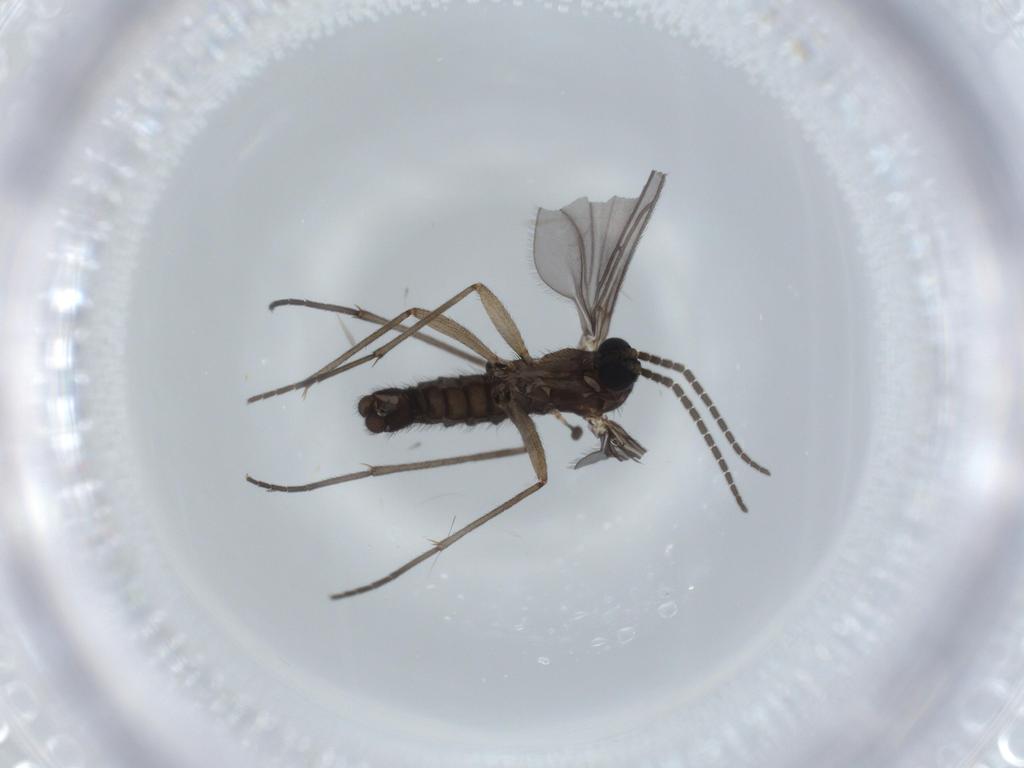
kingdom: Animalia
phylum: Arthropoda
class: Insecta
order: Diptera
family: Sciaridae
